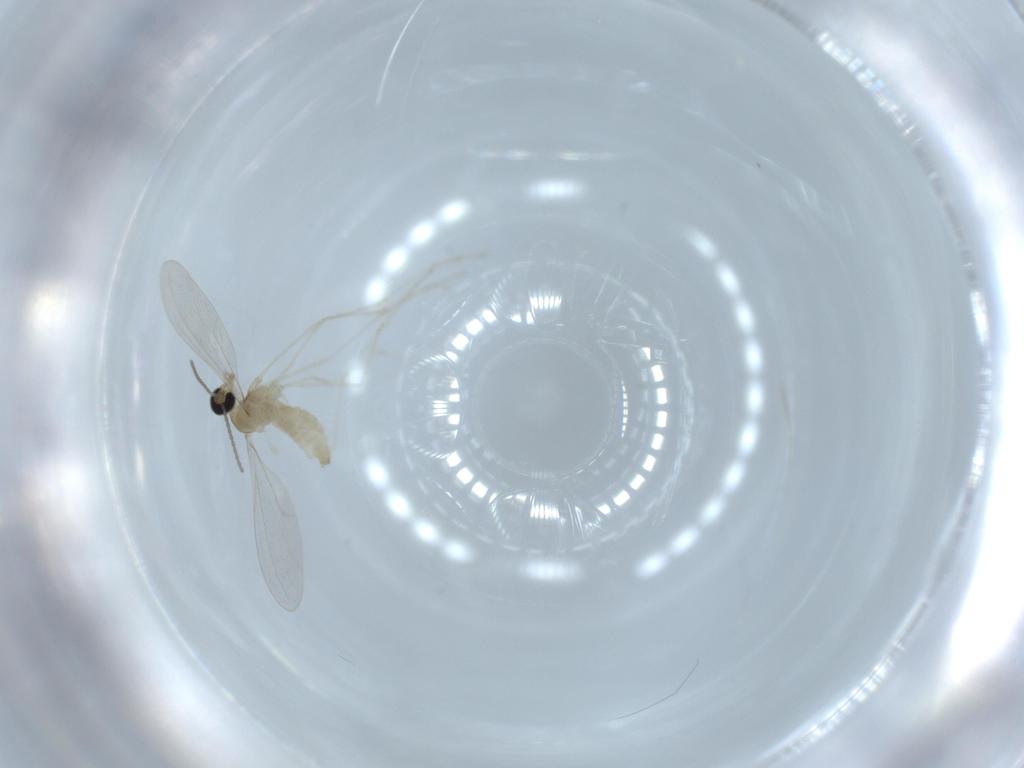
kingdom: Animalia
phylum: Arthropoda
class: Insecta
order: Diptera
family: Cecidomyiidae
